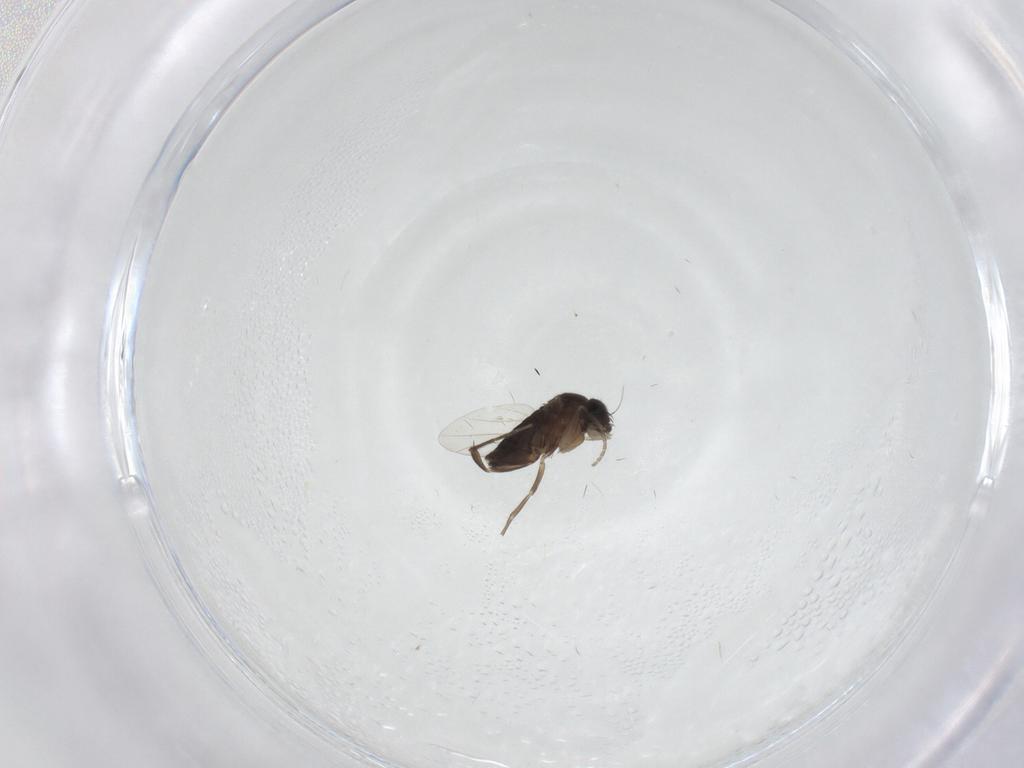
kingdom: Animalia
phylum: Arthropoda
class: Insecta
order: Diptera
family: Phoridae
